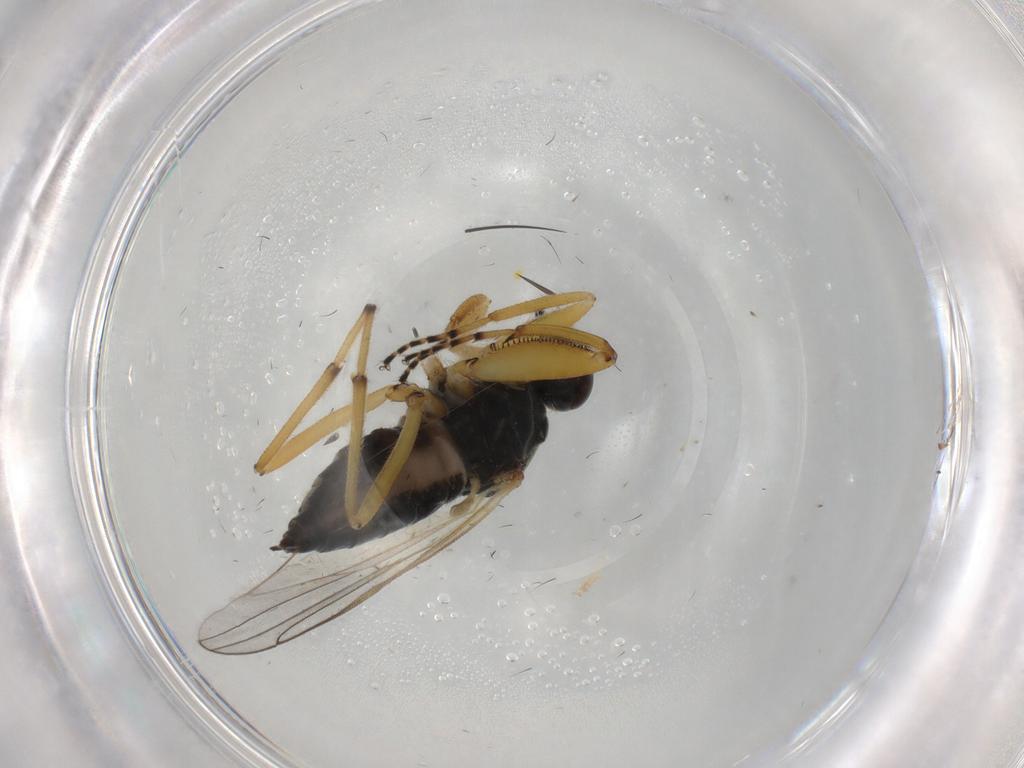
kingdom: Animalia
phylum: Arthropoda
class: Insecta
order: Diptera
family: Hybotidae
